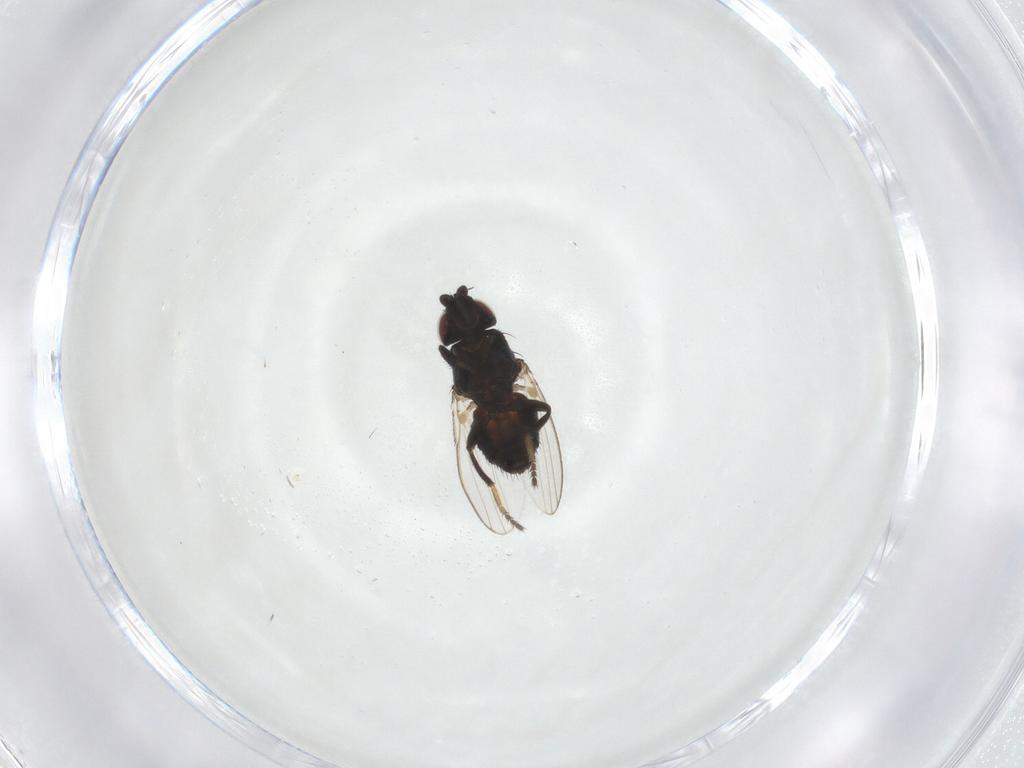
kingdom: Animalia
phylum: Arthropoda
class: Insecta
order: Diptera
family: Milichiidae
